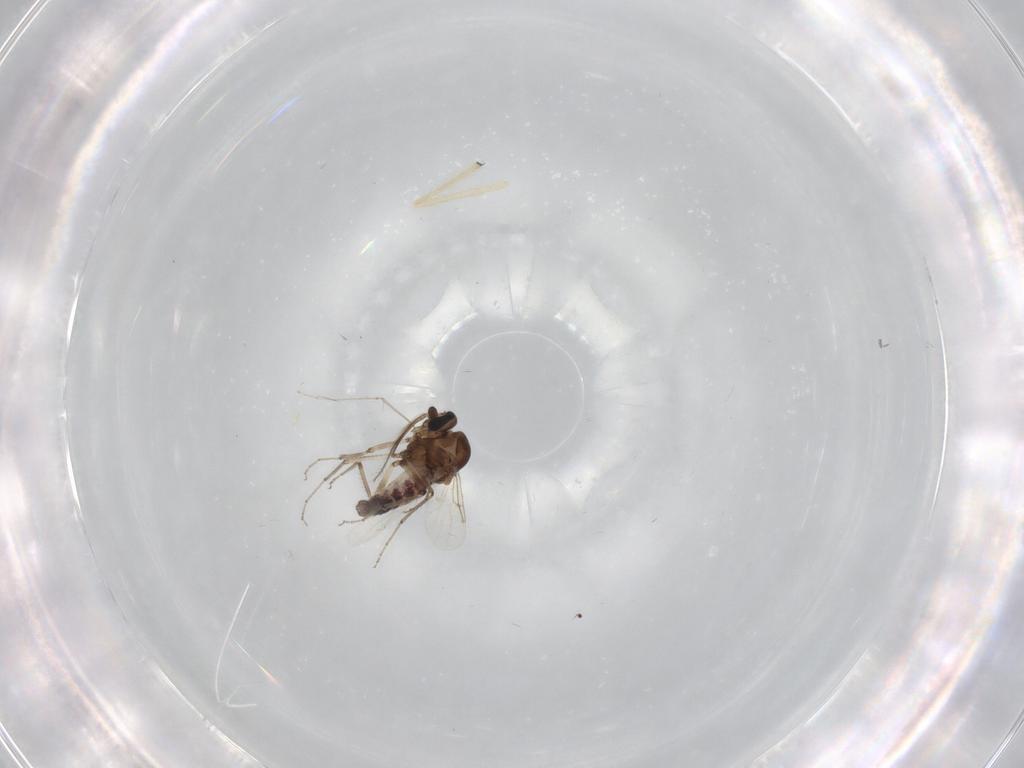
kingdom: Animalia
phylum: Arthropoda
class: Insecta
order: Diptera
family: Ceratopogonidae
